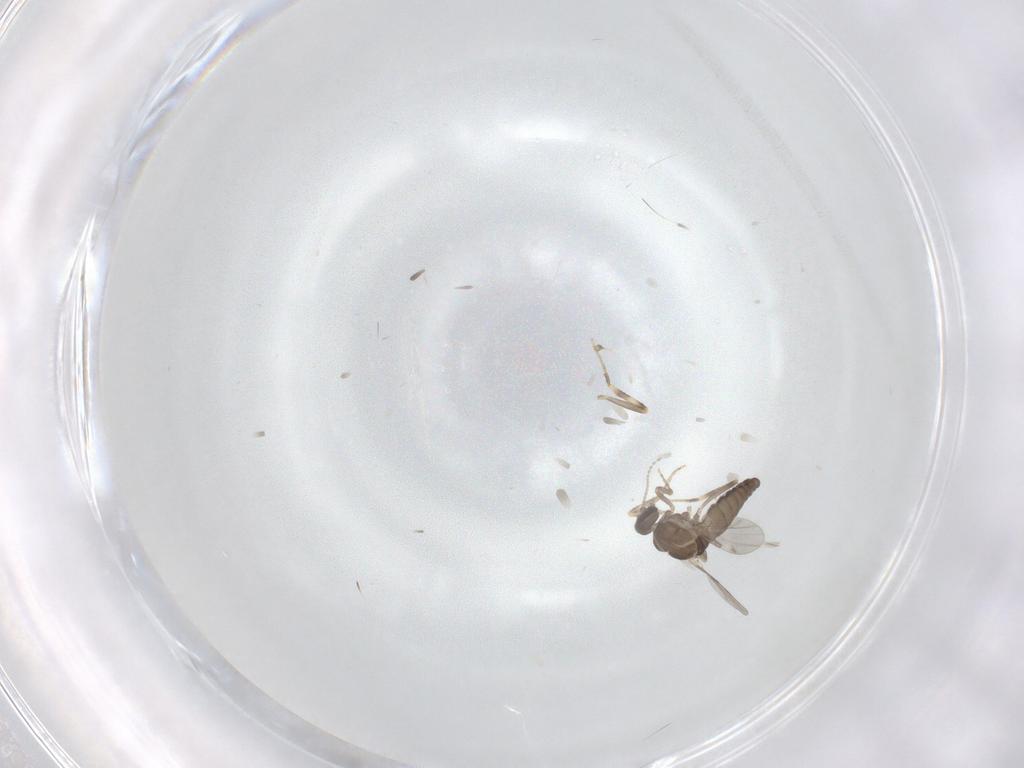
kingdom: Animalia
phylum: Arthropoda
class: Insecta
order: Diptera
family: Ceratopogonidae
